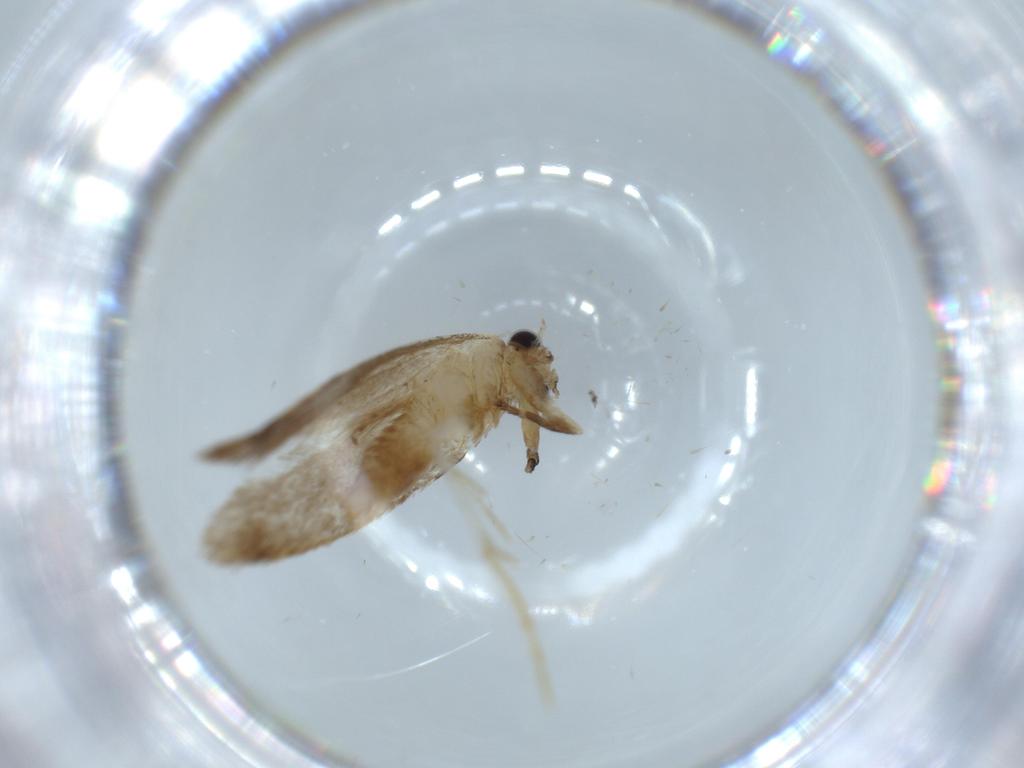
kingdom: Animalia
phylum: Arthropoda
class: Insecta
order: Lepidoptera
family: Tineidae
